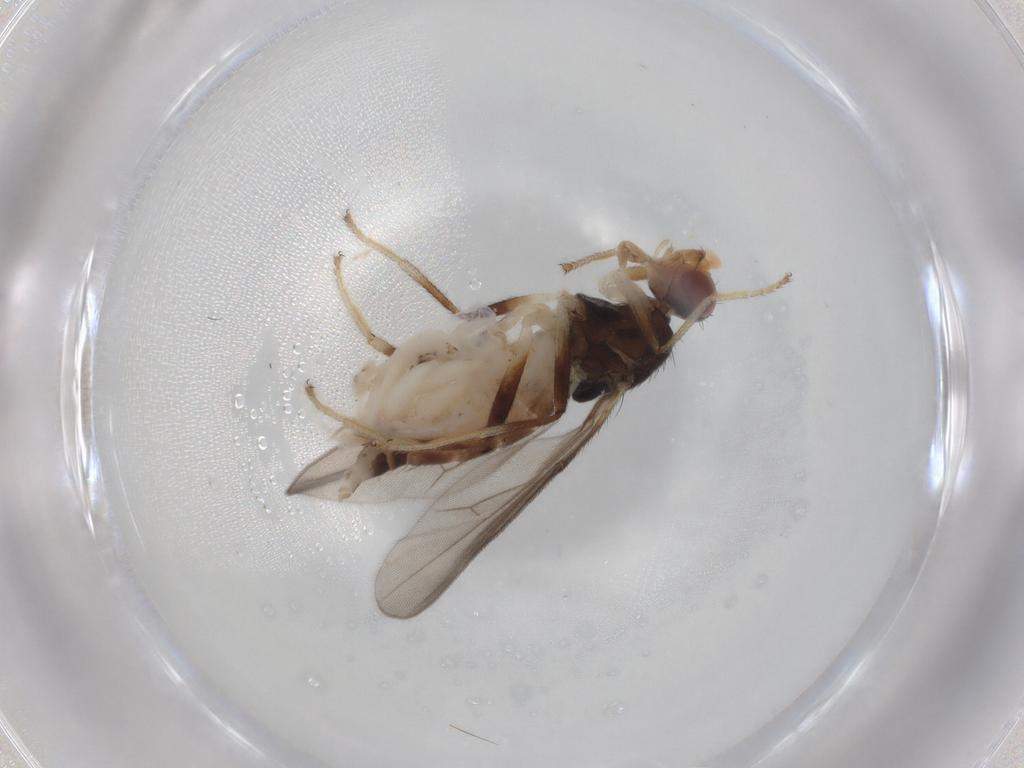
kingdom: Animalia
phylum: Arthropoda
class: Insecta
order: Diptera
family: Chloropidae
